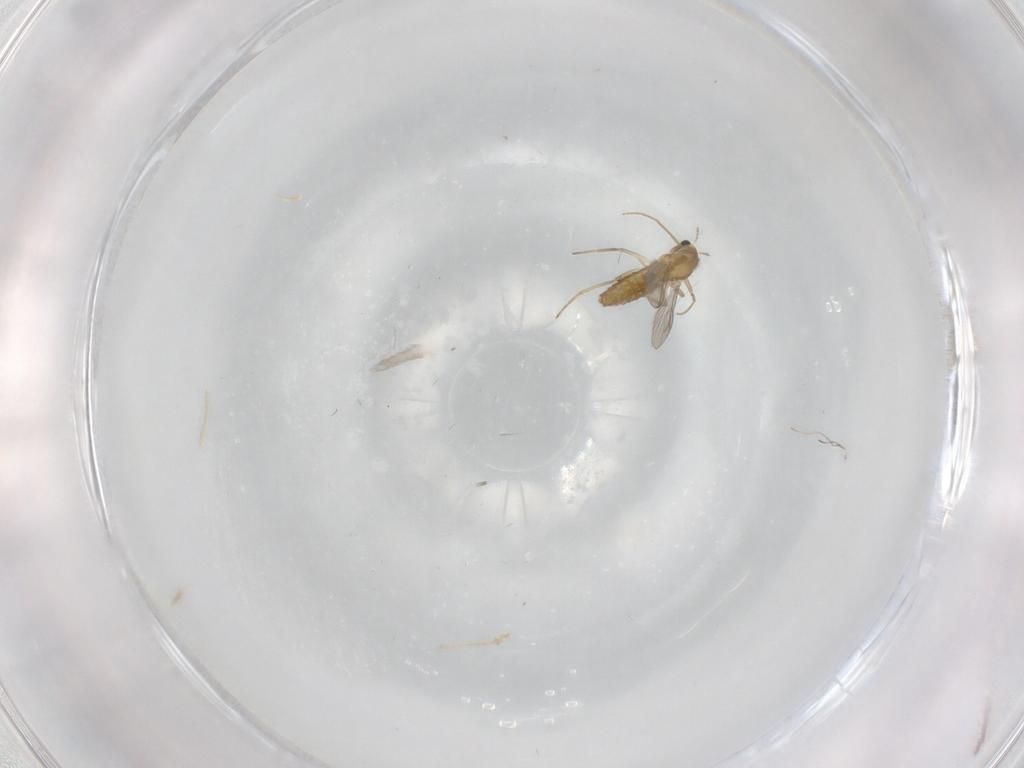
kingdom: Animalia
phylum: Arthropoda
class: Insecta
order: Diptera
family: Chironomidae
